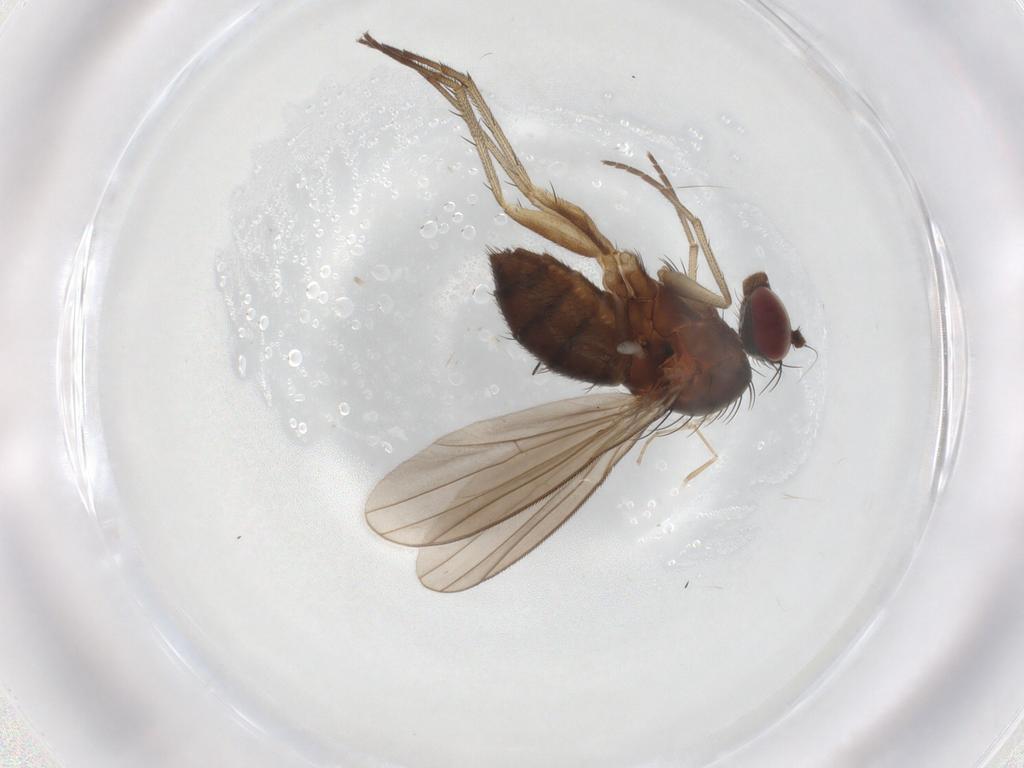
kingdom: Animalia
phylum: Arthropoda
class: Insecta
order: Diptera
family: Dolichopodidae
